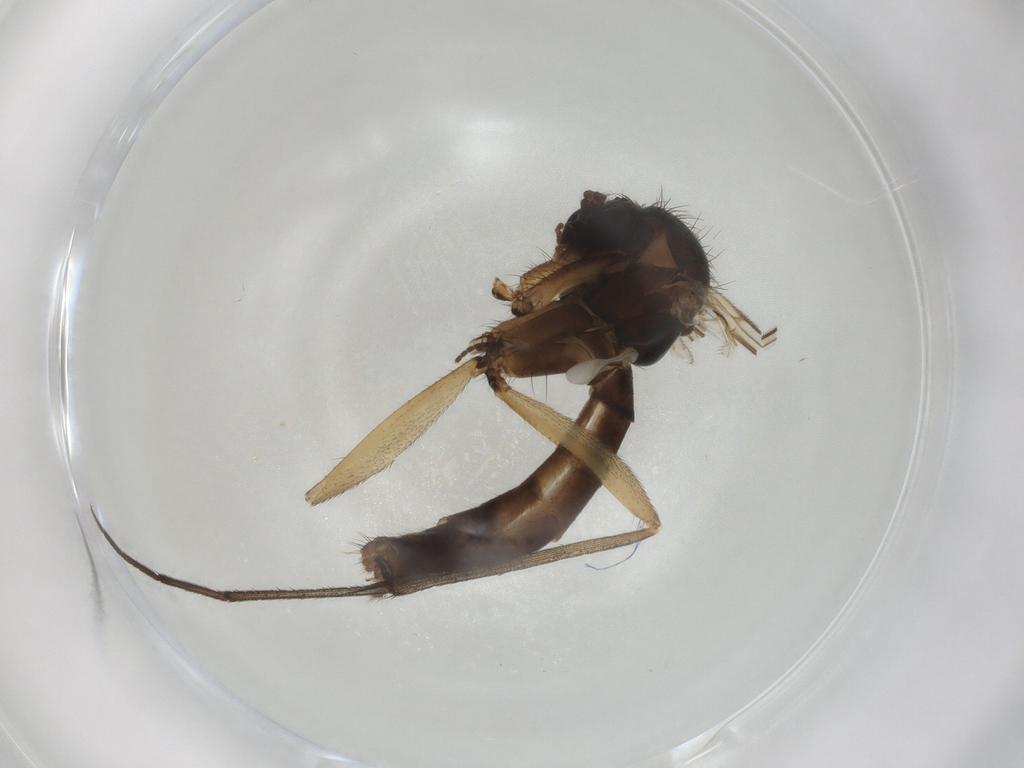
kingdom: Animalia
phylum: Arthropoda
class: Insecta
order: Diptera
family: Mycetophilidae
